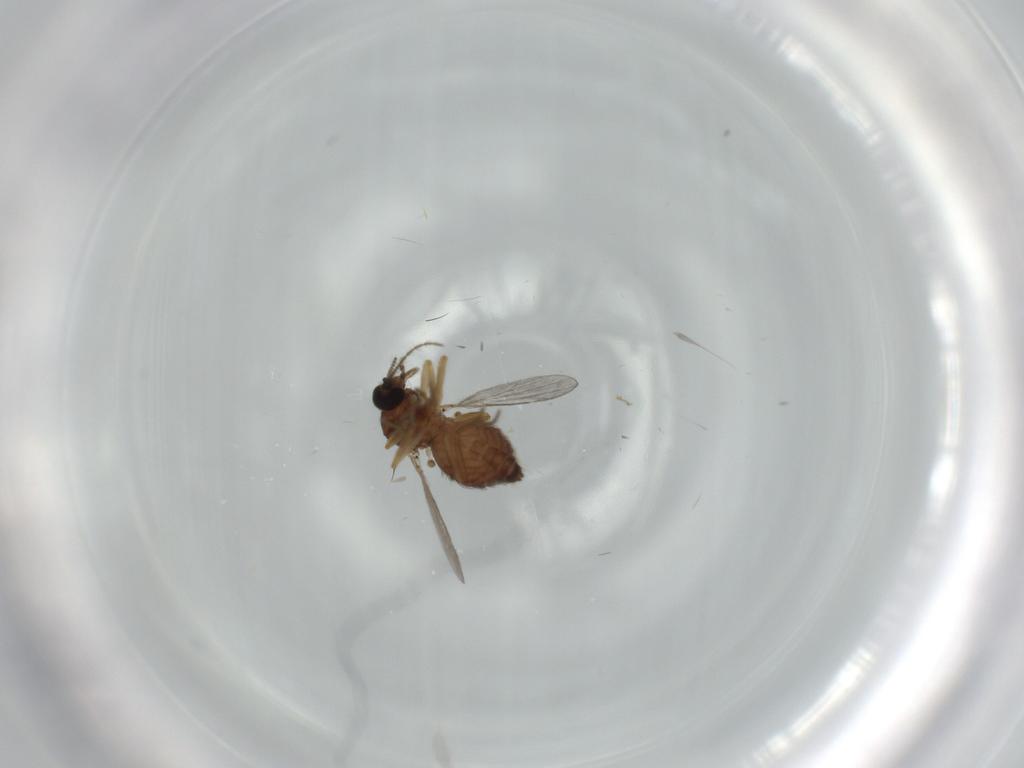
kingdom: Animalia
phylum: Arthropoda
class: Insecta
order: Diptera
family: Ceratopogonidae
